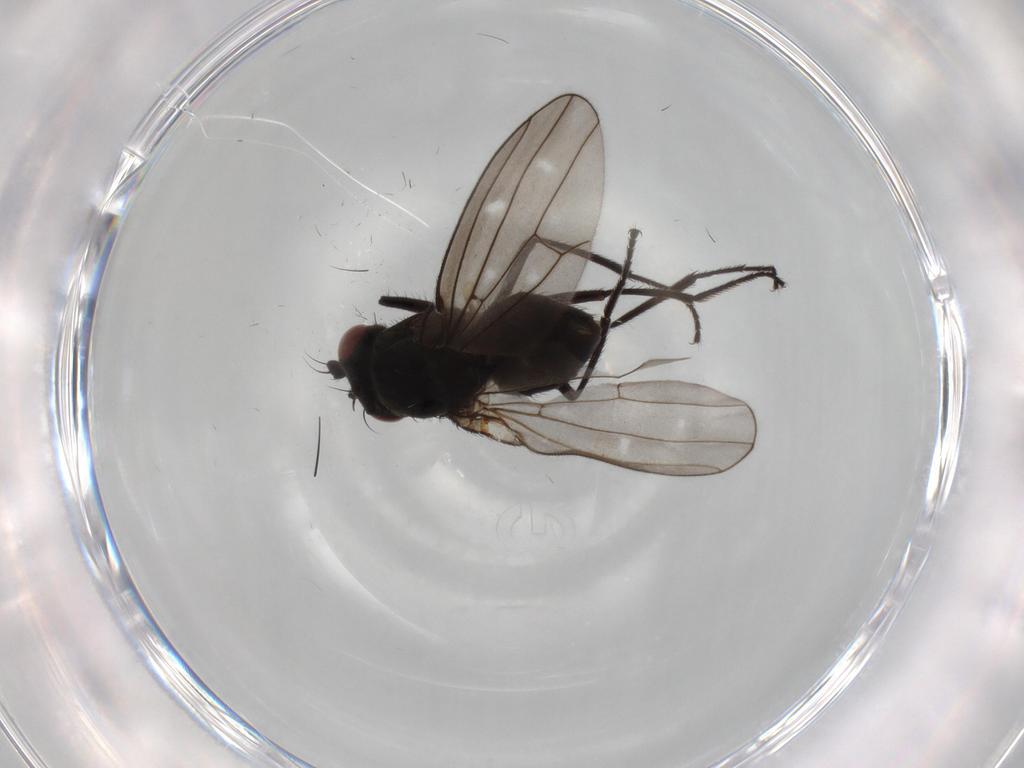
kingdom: Animalia
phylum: Arthropoda
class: Insecta
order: Diptera
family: Ephydridae
